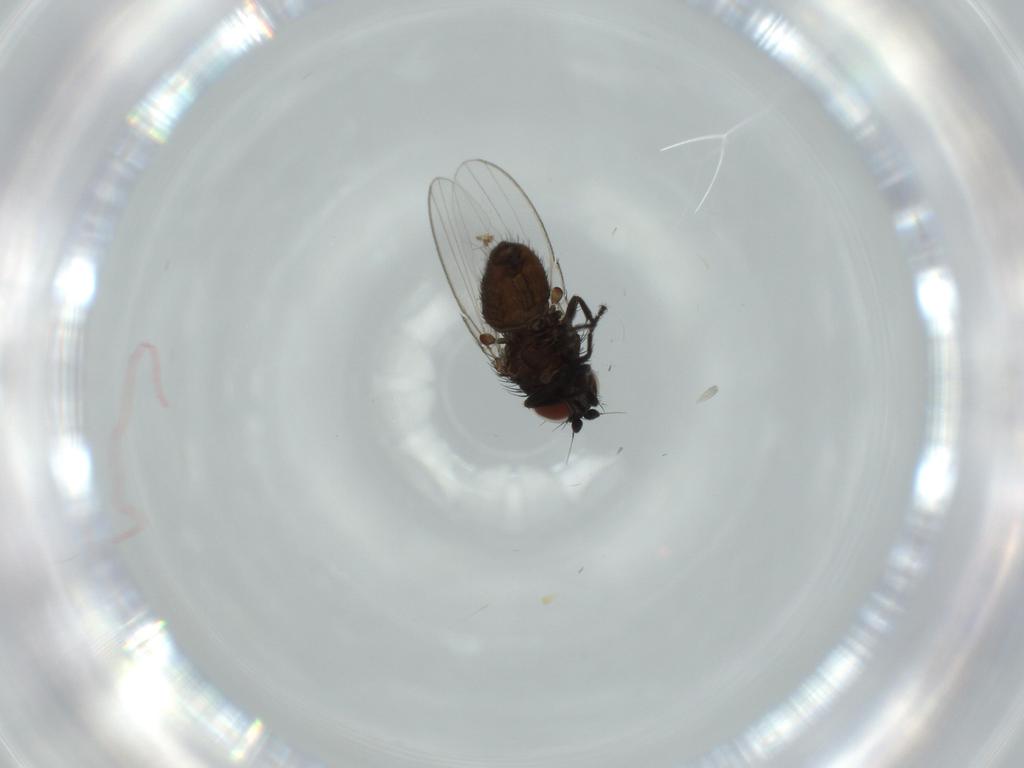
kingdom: Animalia
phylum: Arthropoda
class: Insecta
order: Diptera
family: Milichiidae
